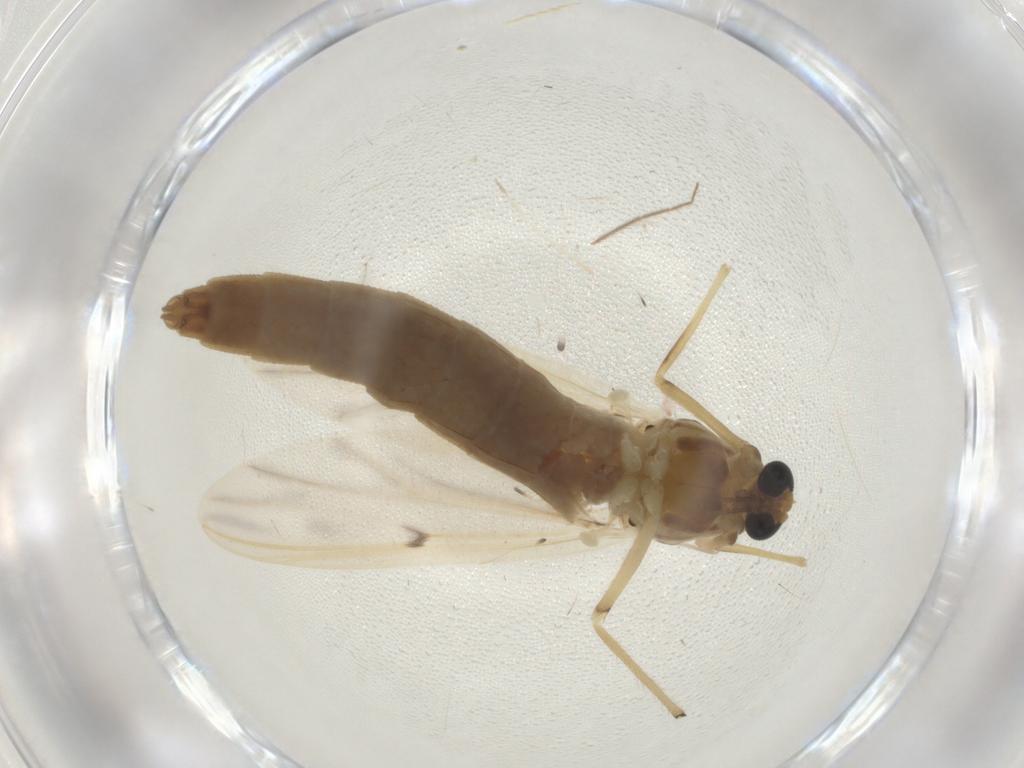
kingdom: Animalia
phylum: Arthropoda
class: Insecta
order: Diptera
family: Chironomidae
